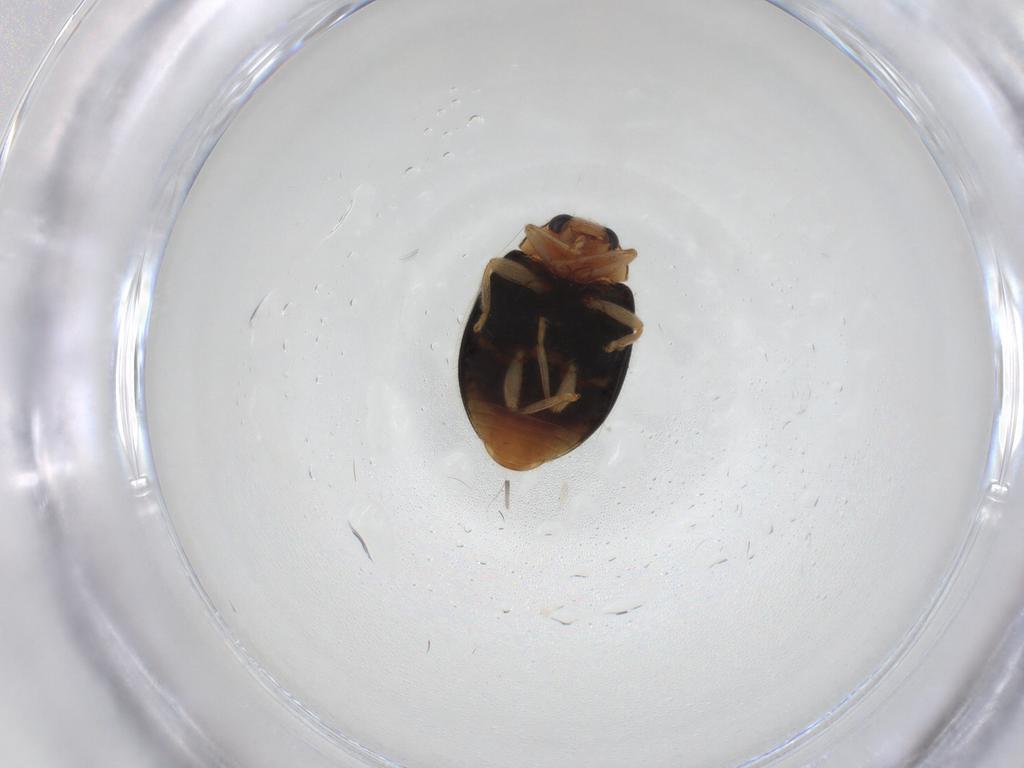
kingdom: Animalia
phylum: Arthropoda
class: Insecta
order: Coleoptera
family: Coccinellidae
